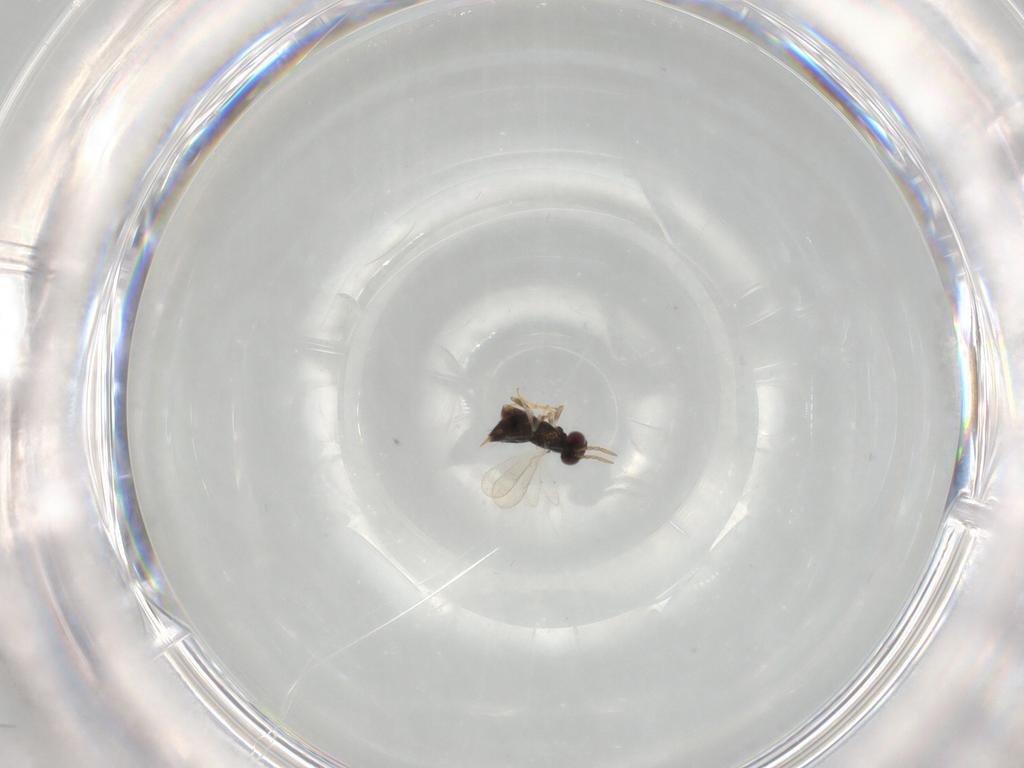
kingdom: Animalia
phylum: Arthropoda
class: Insecta
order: Hymenoptera
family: Aphelinidae
